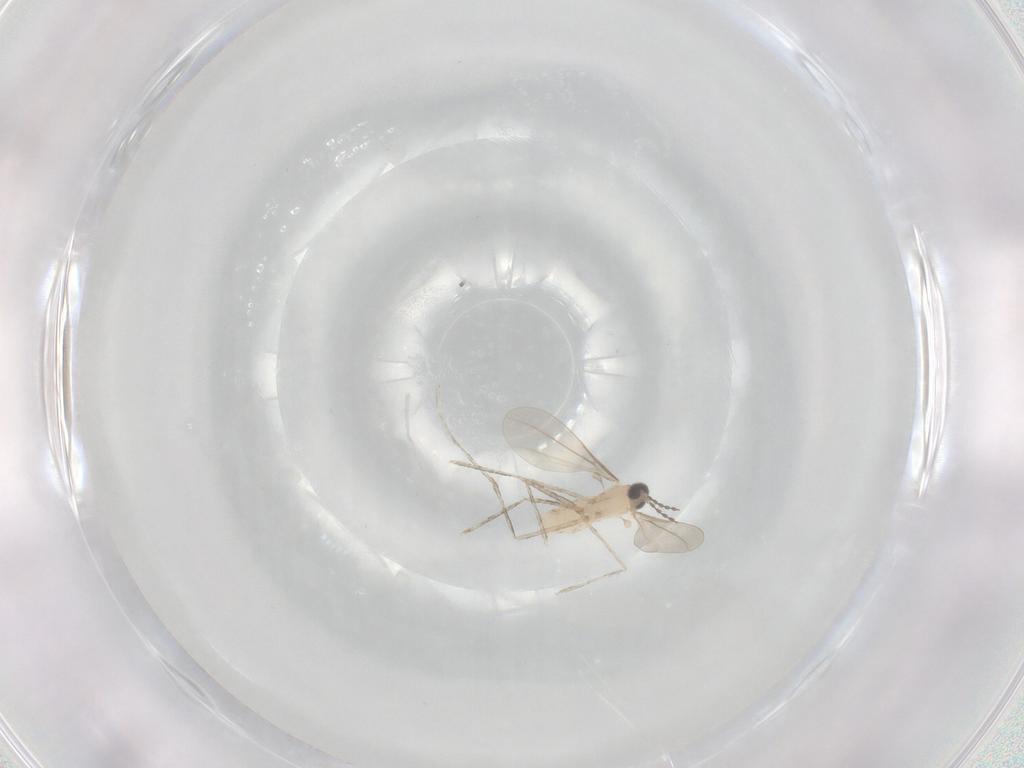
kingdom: Animalia
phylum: Arthropoda
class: Insecta
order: Diptera
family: Cecidomyiidae
